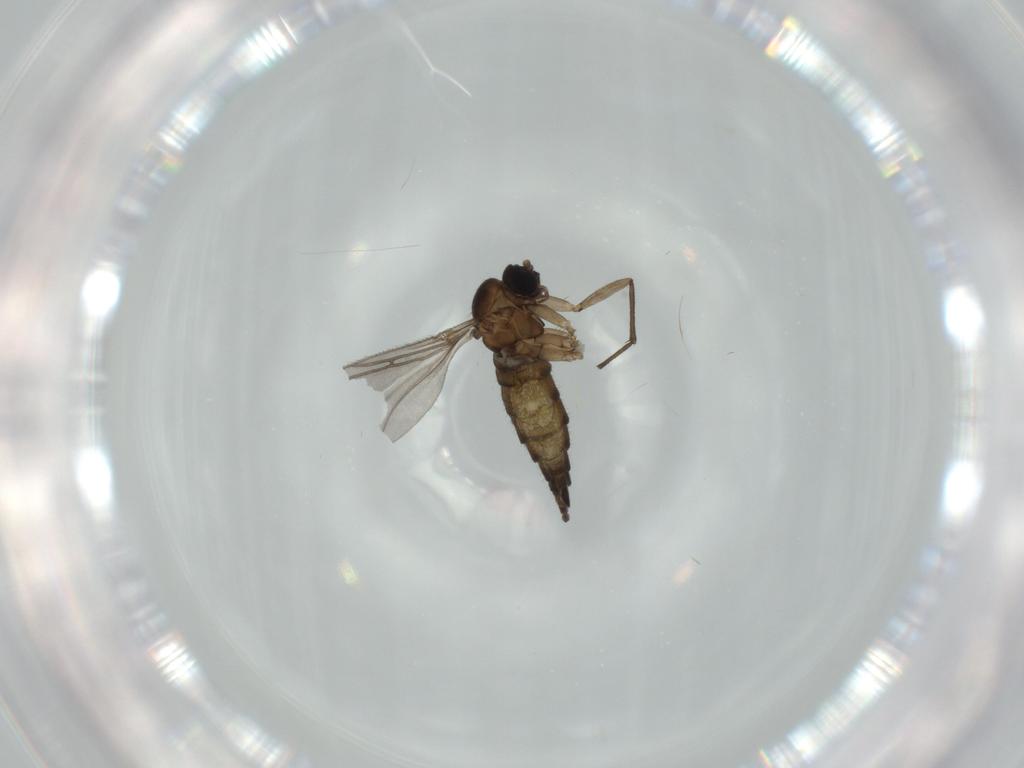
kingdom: Animalia
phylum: Arthropoda
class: Insecta
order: Diptera
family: Sciaridae
